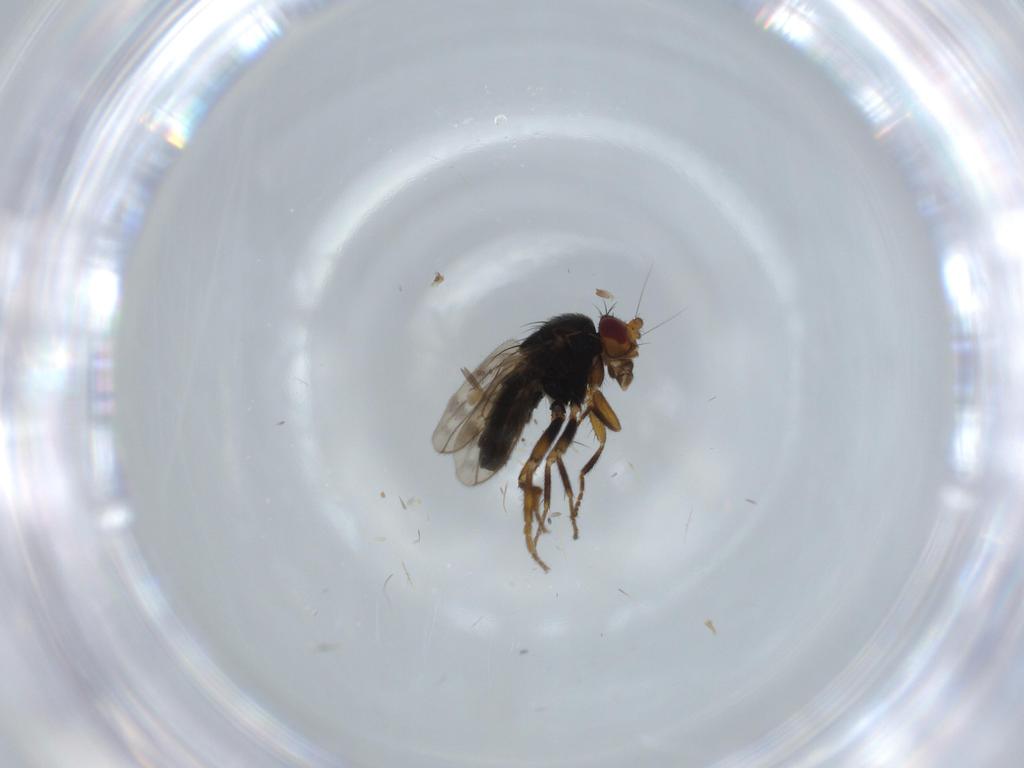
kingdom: Animalia
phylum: Arthropoda
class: Insecta
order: Diptera
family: Sphaeroceridae
